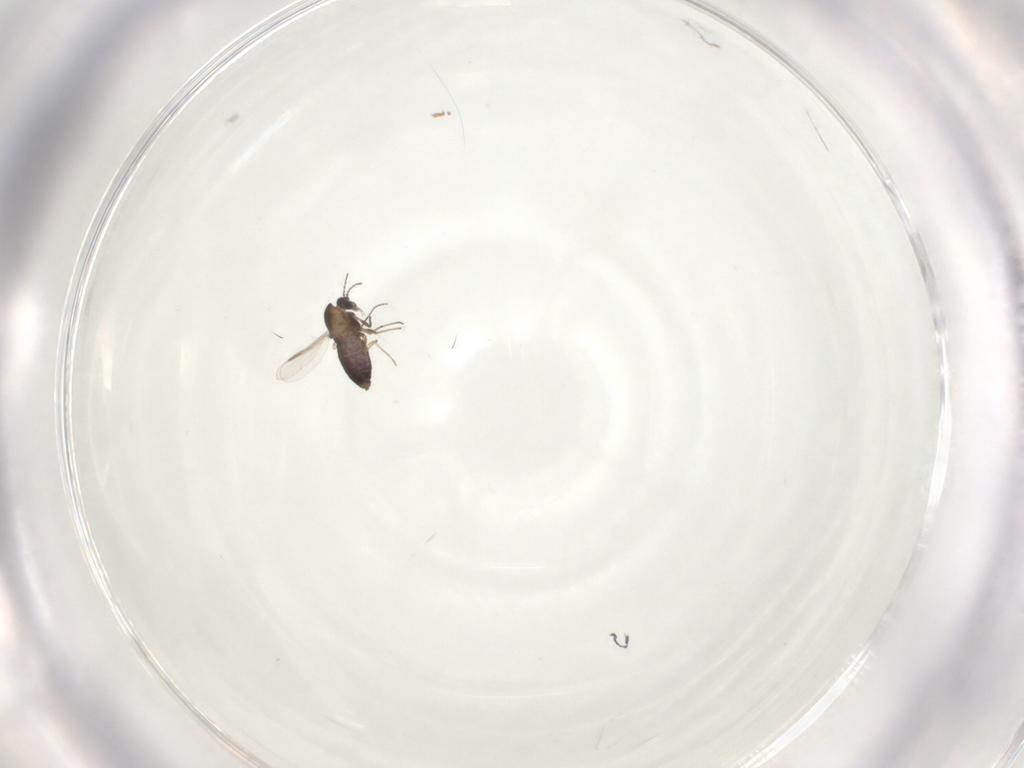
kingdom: Animalia
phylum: Arthropoda
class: Insecta
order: Diptera
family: Chironomidae
